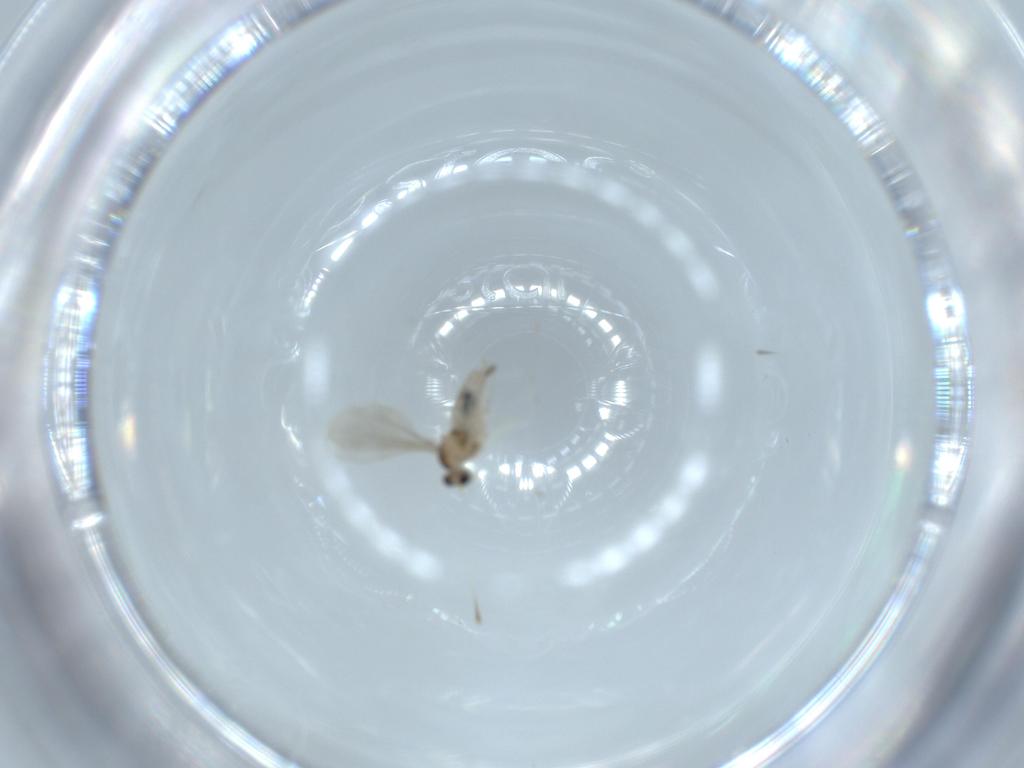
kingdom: Animalia
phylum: Arthropoda
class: Insecta
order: Diptera
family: Cecidomyiidae
